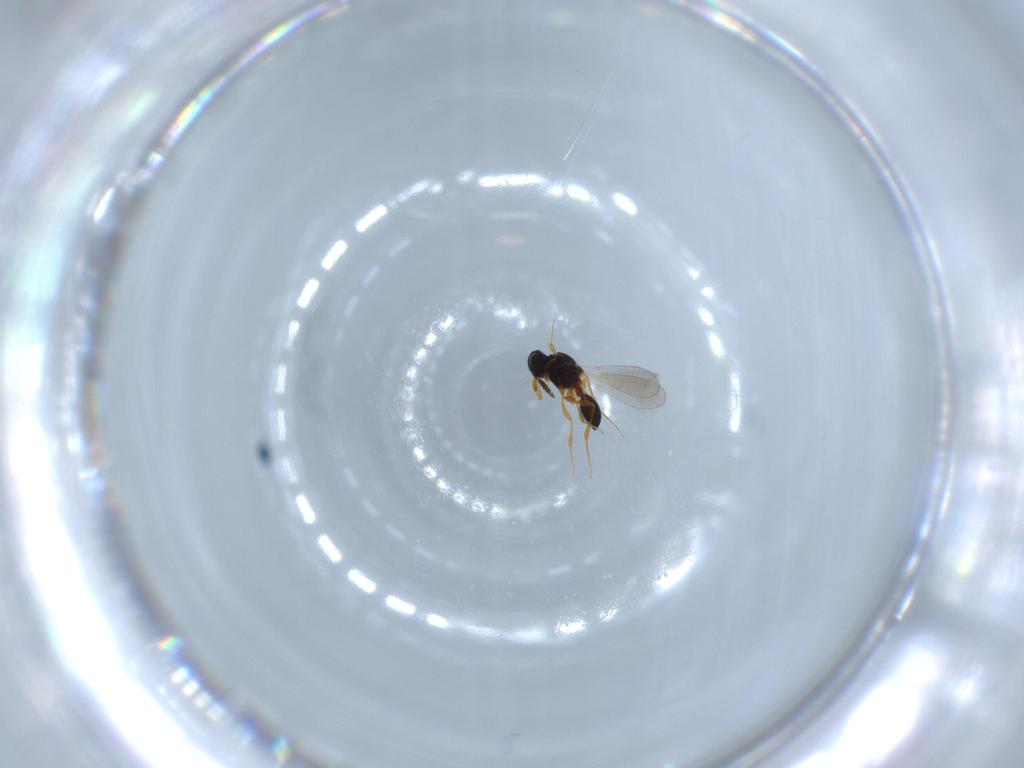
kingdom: Animalia
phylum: Arthropoda
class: Insecta
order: Hymenoptera
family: Platygastridae
